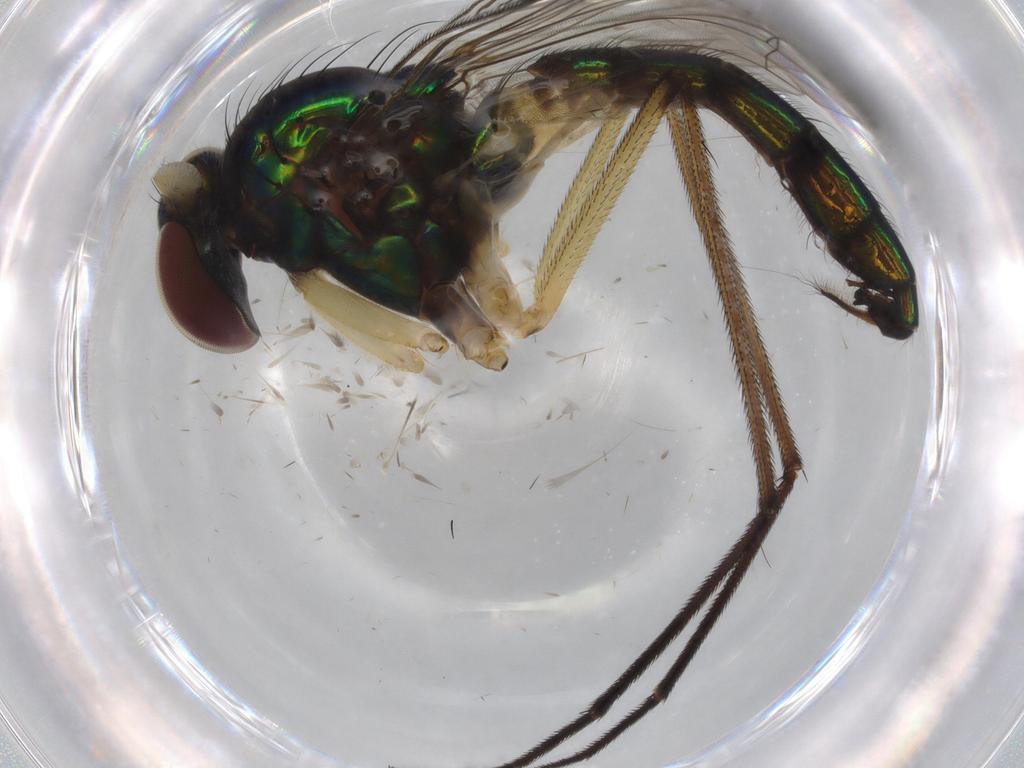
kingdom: Animalia
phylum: Arthropoda
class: Insecta
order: Diptera
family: Dolichopodidae
